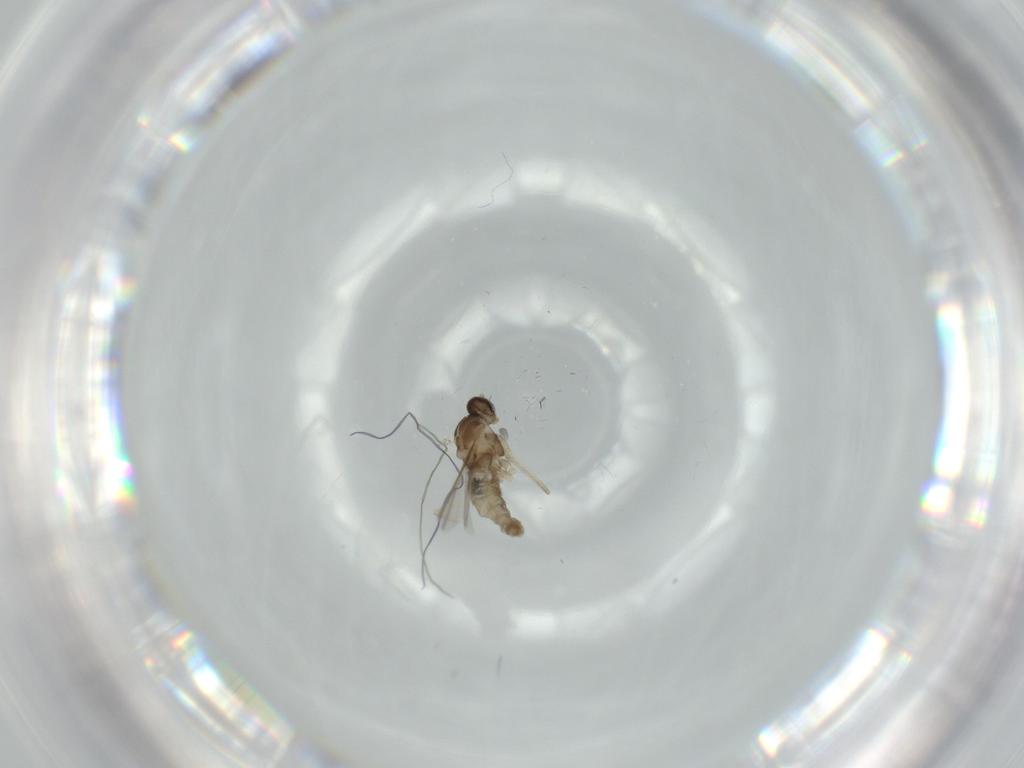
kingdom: Animalia
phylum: Arthropoda
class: Insecta
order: Diptera
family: Cecidomyiidae
